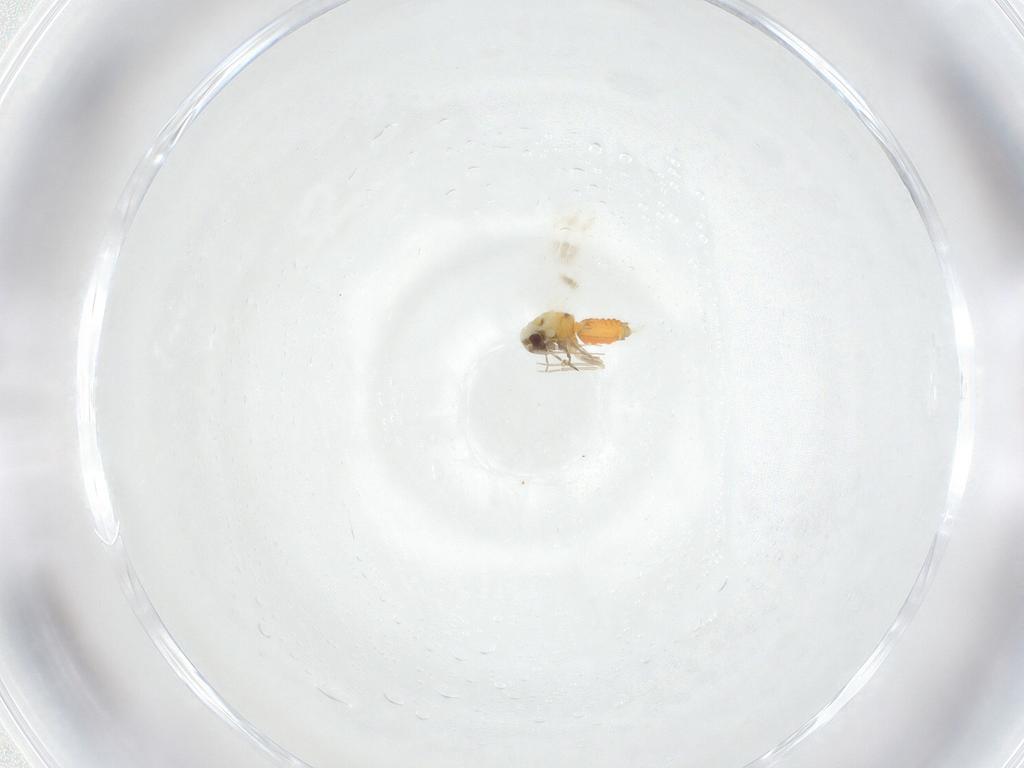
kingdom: Animalia
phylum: Arthropoda
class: Insecta
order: Hemiptera
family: Aleyrodidae
